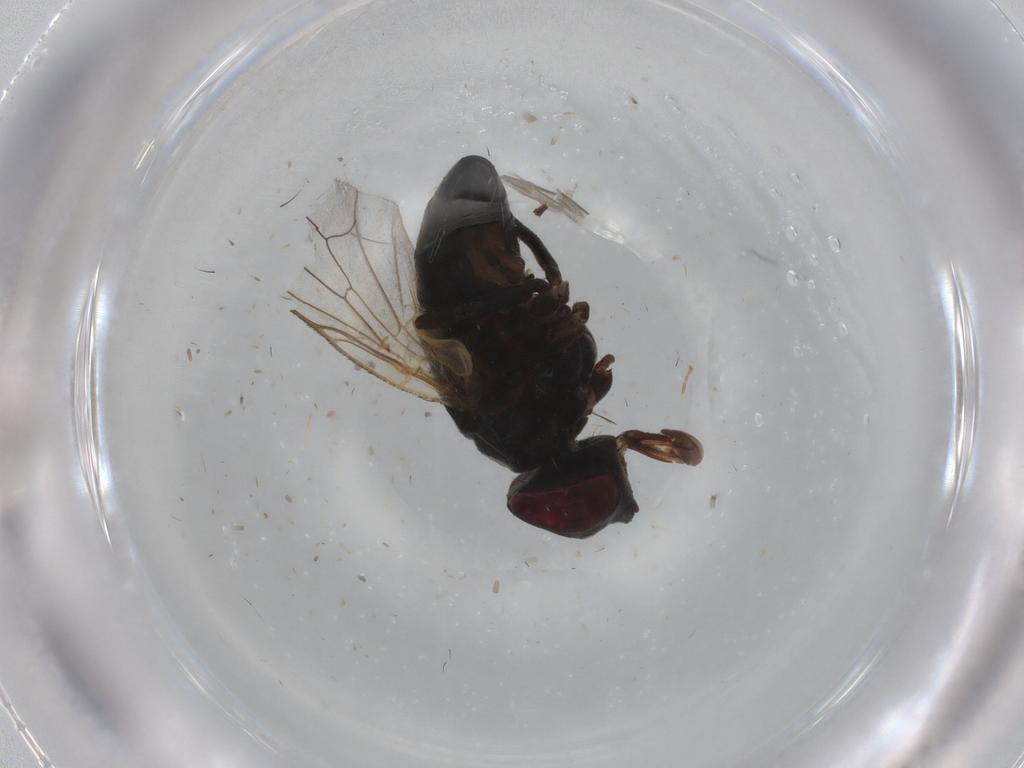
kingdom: Animalia
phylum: Arthropoda
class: Insecta
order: Diptera
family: Muscidae
